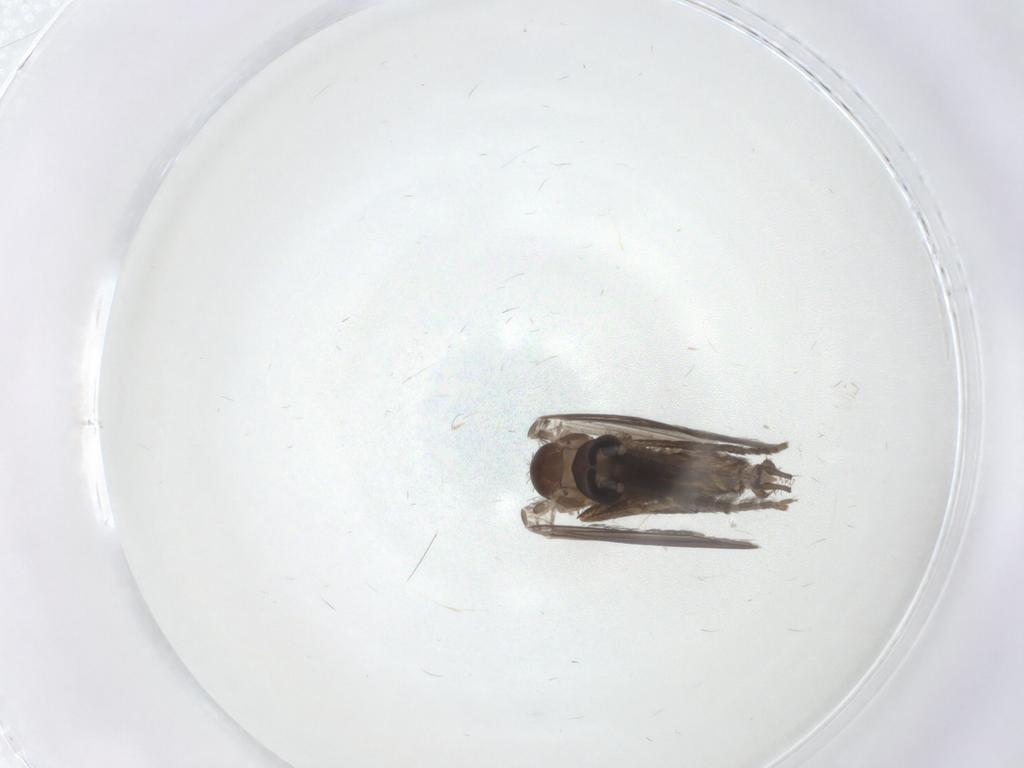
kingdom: Animalia
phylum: Arthropoda
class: Insecta
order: Diptera
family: Psychodidae
